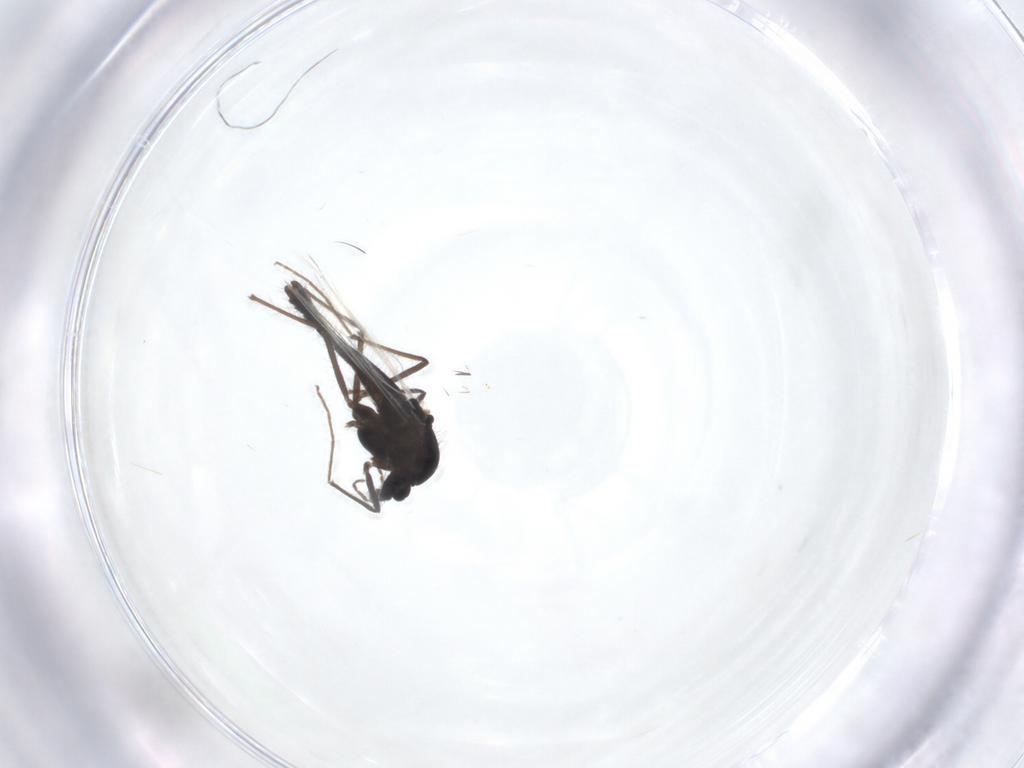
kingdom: Animalia
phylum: Arthropoda
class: Insecta
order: Diptera
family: Chironomidae
